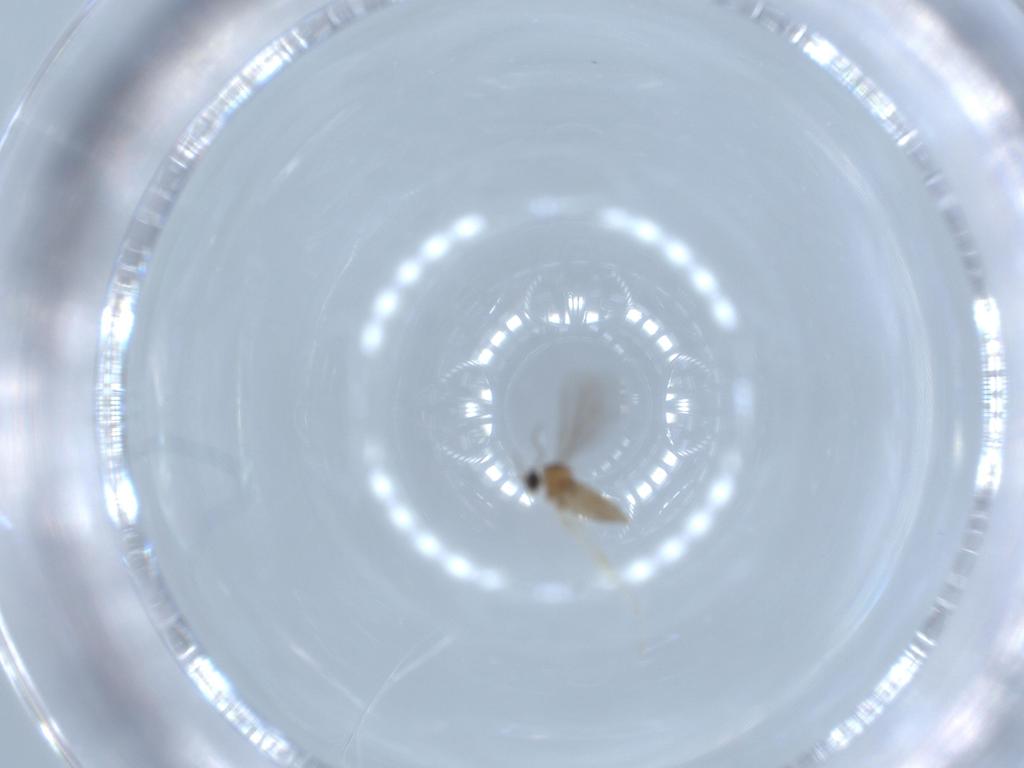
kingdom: Animalia
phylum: Arthropoda
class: Insecta
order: Diptera
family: Cecidomyiidae
